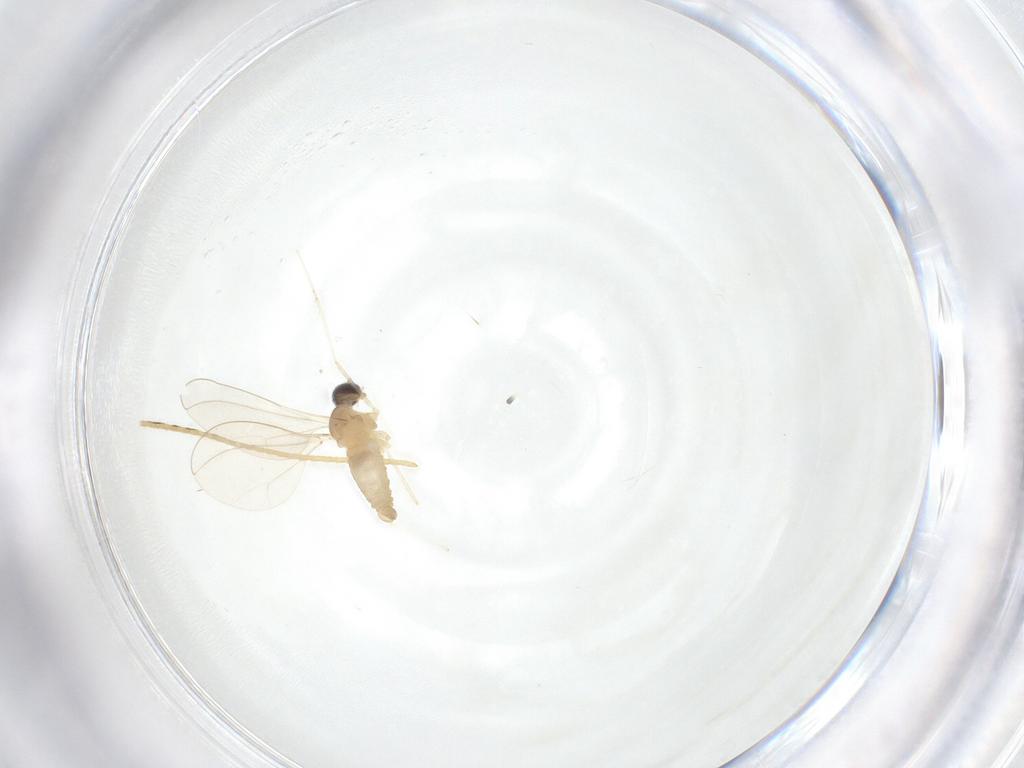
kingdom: Animalia
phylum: Arthropoda
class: Insecta
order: Diptera
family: Cecidomyiidae
